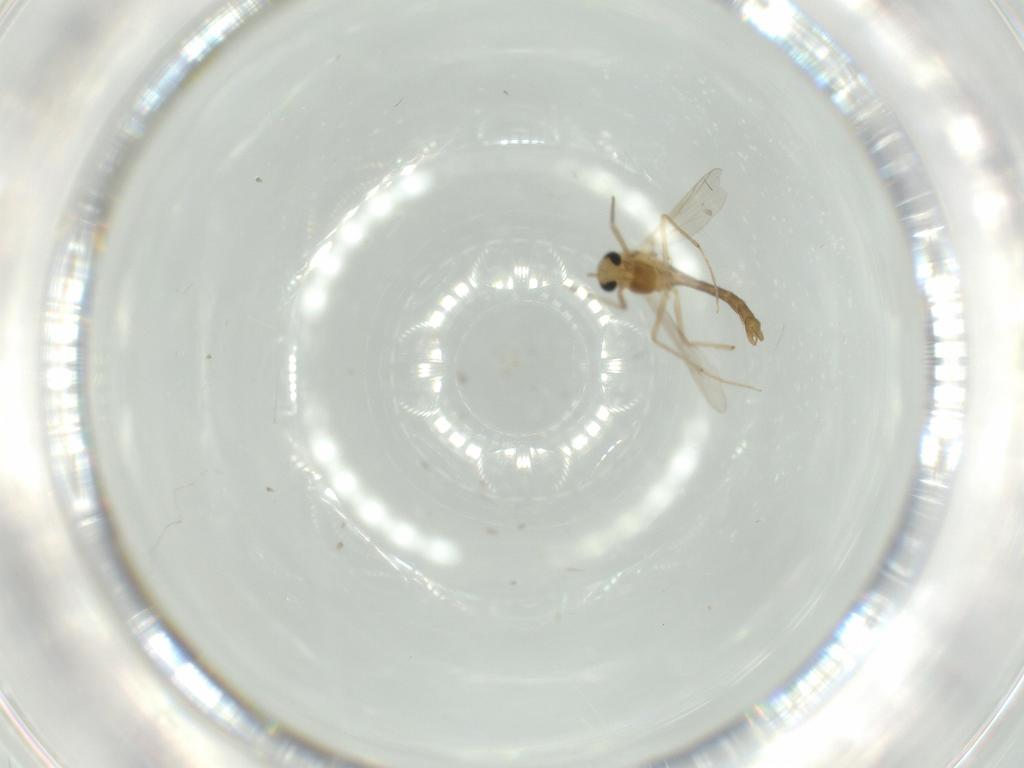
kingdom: Animalia
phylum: Arthropoda
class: Insecta
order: Diptera
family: Chironomidae
